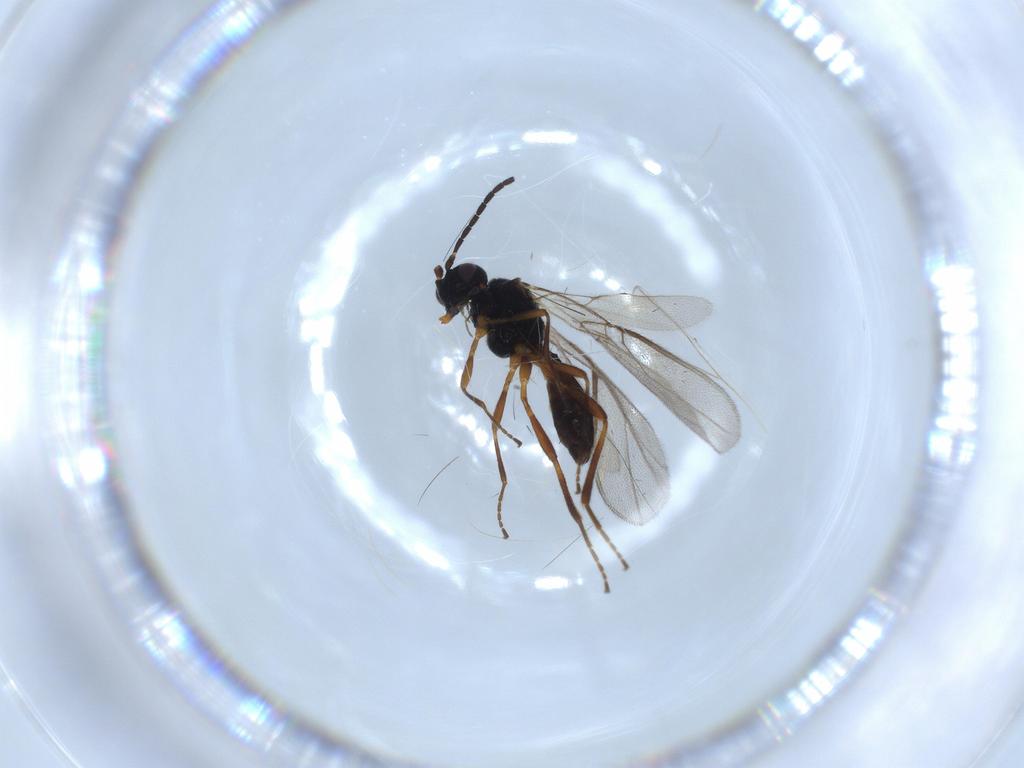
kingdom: Animalia
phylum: Arthropoda
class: Insecta
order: Hymenoptera
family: Braconidae
